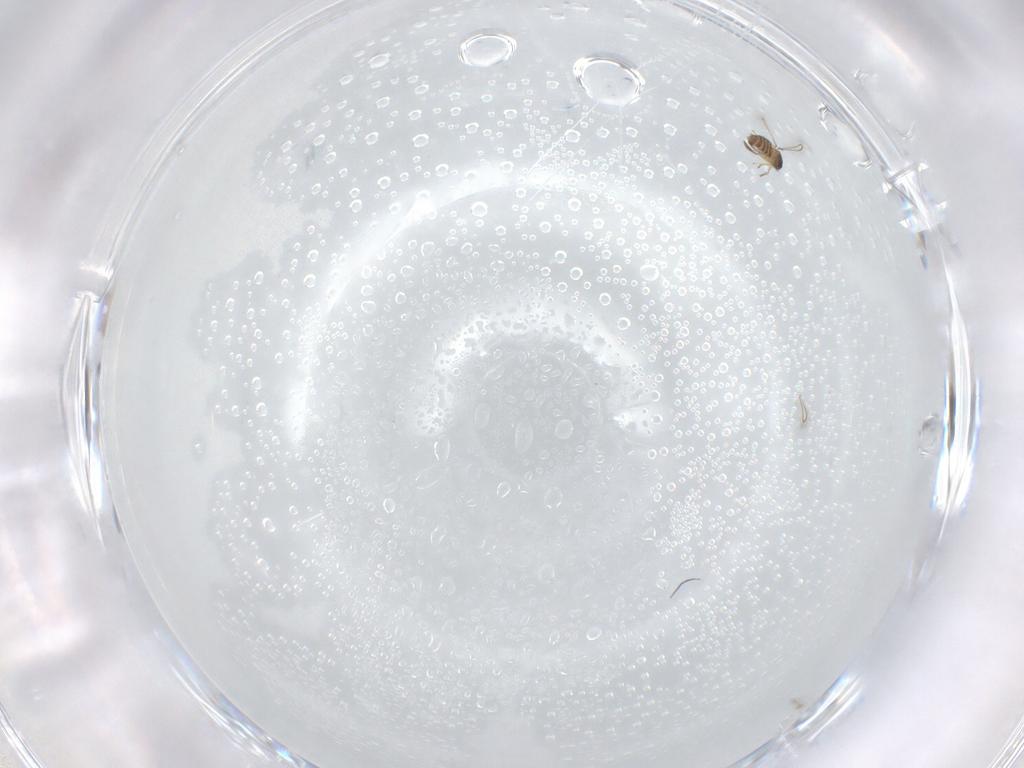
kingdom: Animalia
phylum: Arthropoda
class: Insecta
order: Hymenoptera
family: Mymaridae
